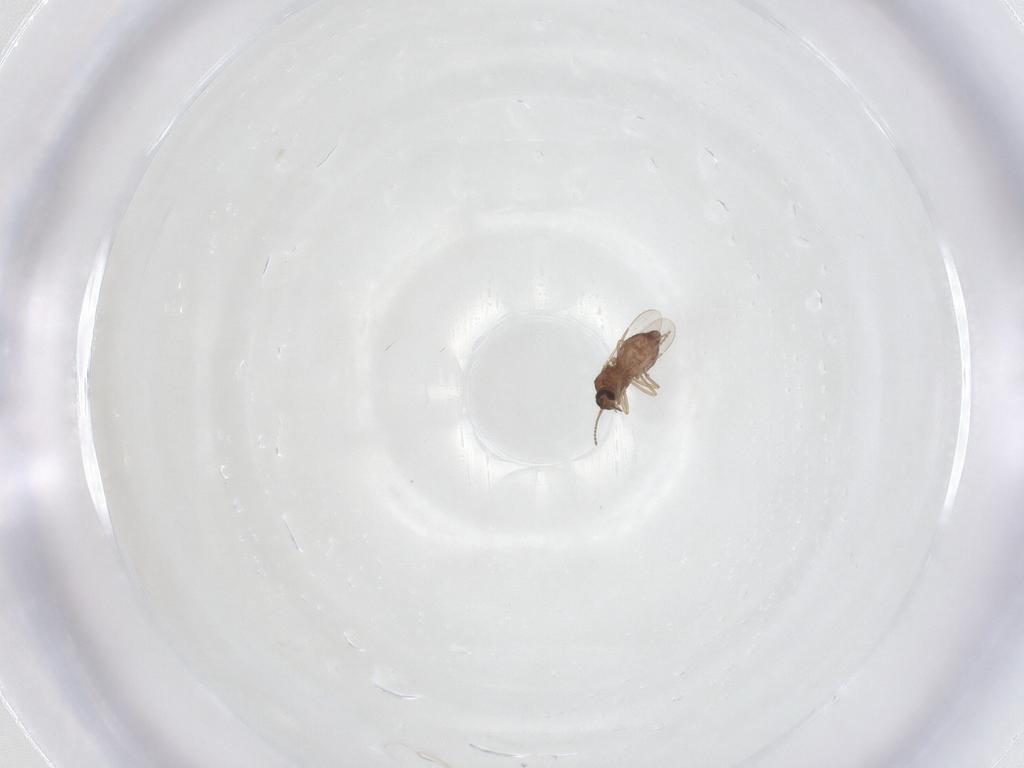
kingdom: Animalia
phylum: Arthropoda
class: Insecta
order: Diptera
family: Ceratopogonidae
